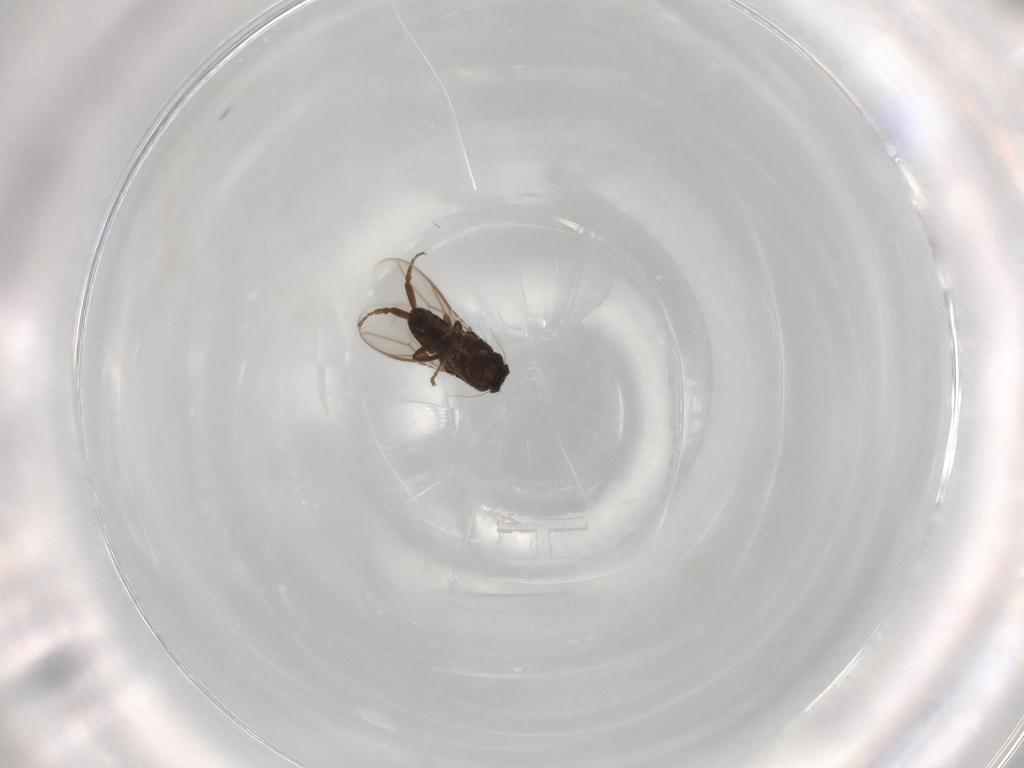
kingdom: Animalia
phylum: Arthropoda
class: Insecta
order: Diptera
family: Sphaeroceridae
